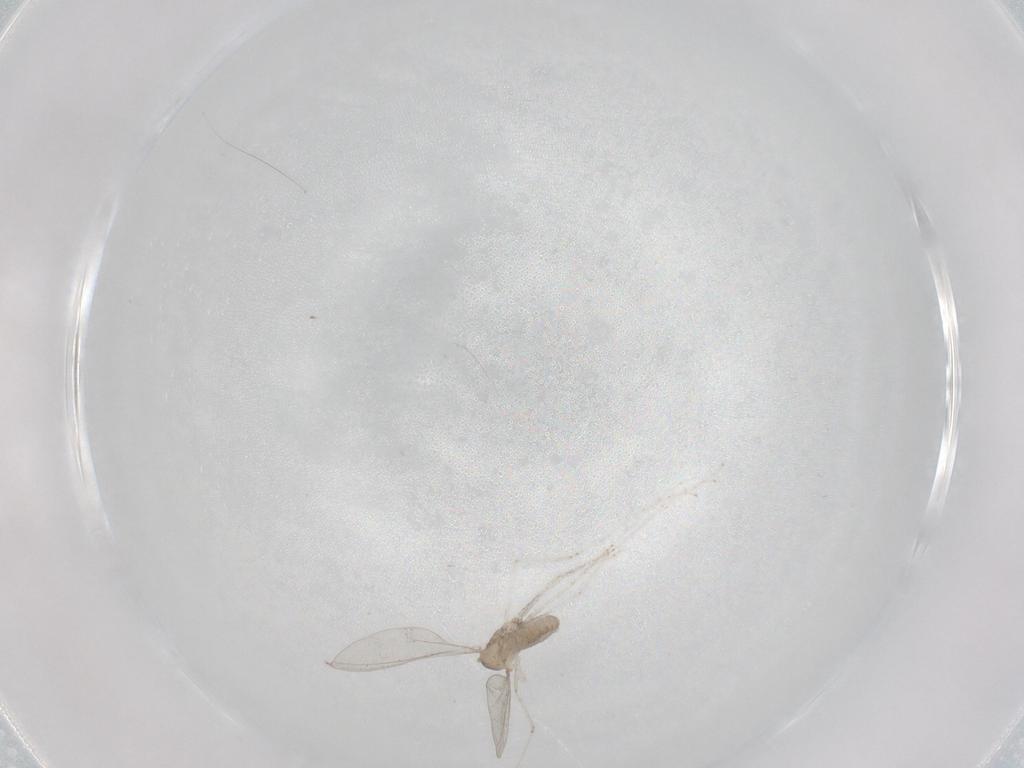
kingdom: Animalia
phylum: Arthropoda
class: Insecta
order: Diptera
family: Cecidomyiidae
